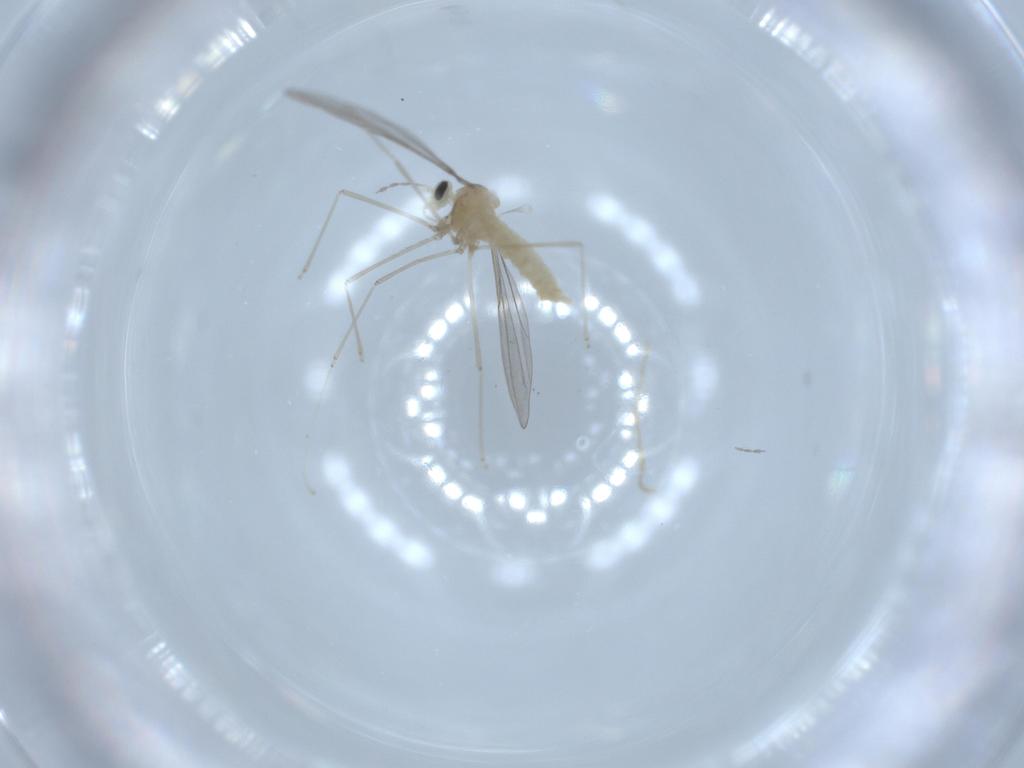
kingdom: Animalia
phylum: Arthropoda
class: Insecta
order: Diptera
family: Cecidomyiidae
